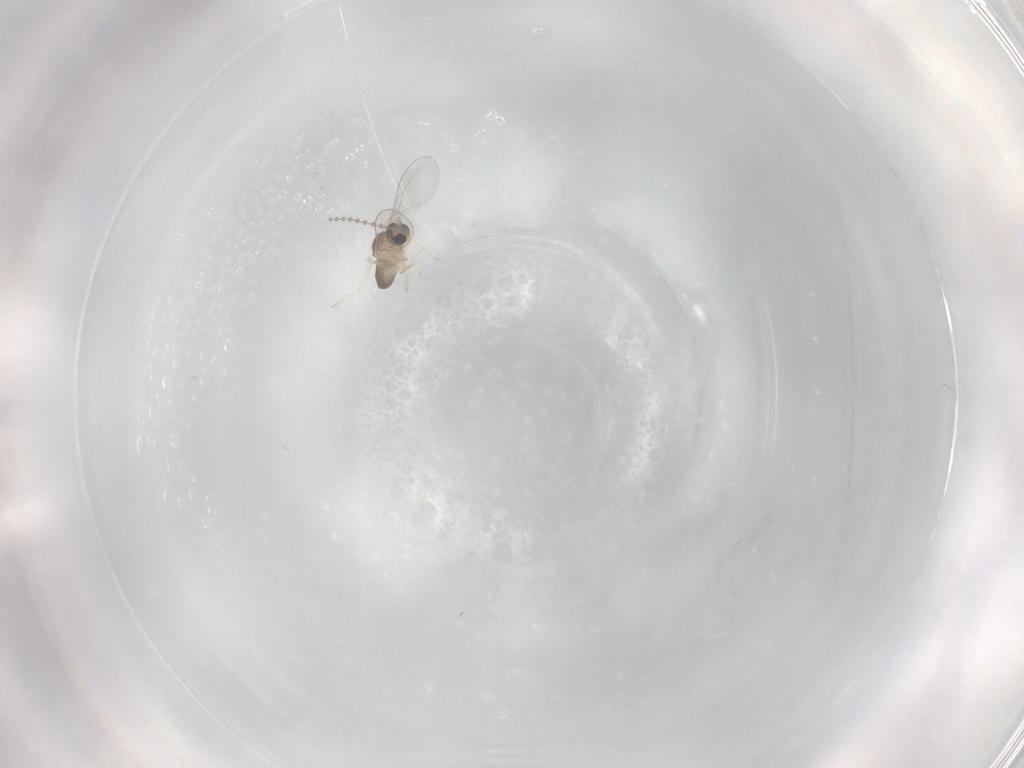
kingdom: Animalia
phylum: Arthropoda
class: Insecta
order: Diptera
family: Cecidomyiidae
